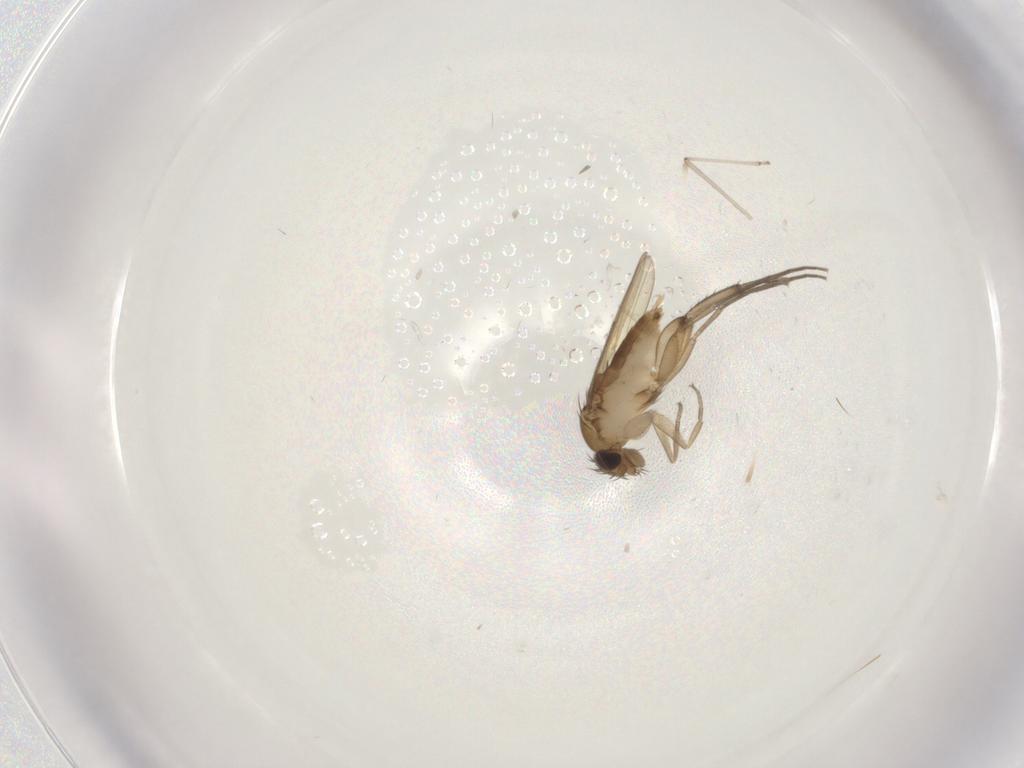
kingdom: Animalia
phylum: Arthropoda
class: Insecta
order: Diptera
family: Phoridae
